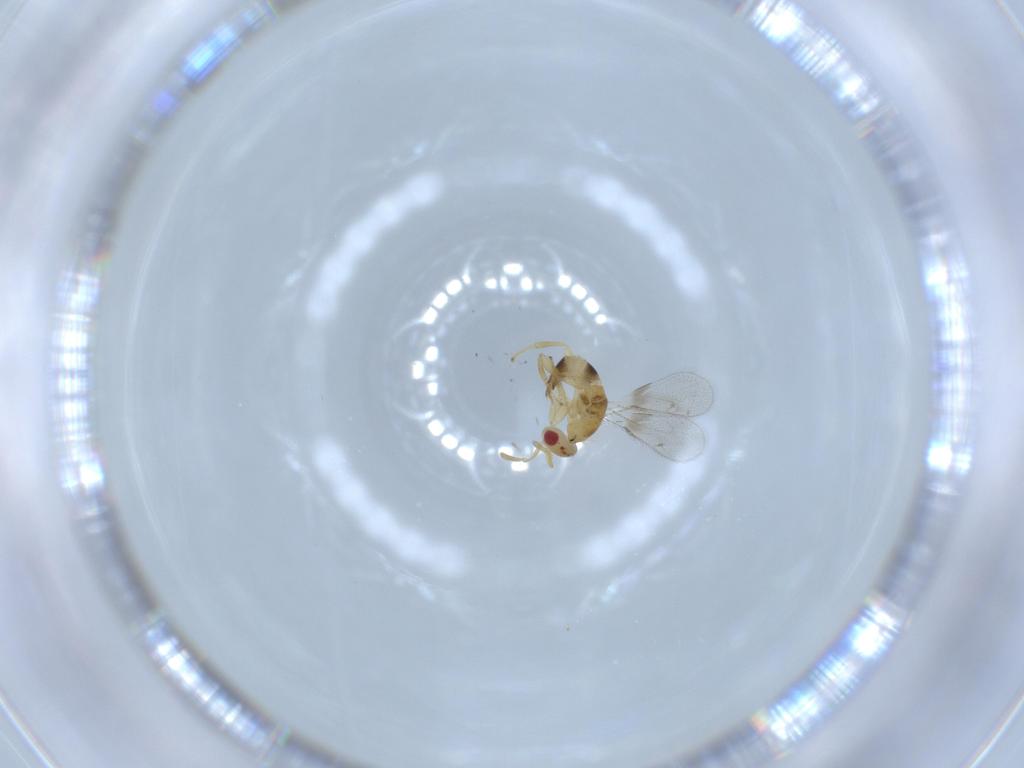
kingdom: Animalia
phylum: Arthropoda
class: Insecta
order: Hymenoptera
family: Torymidae
